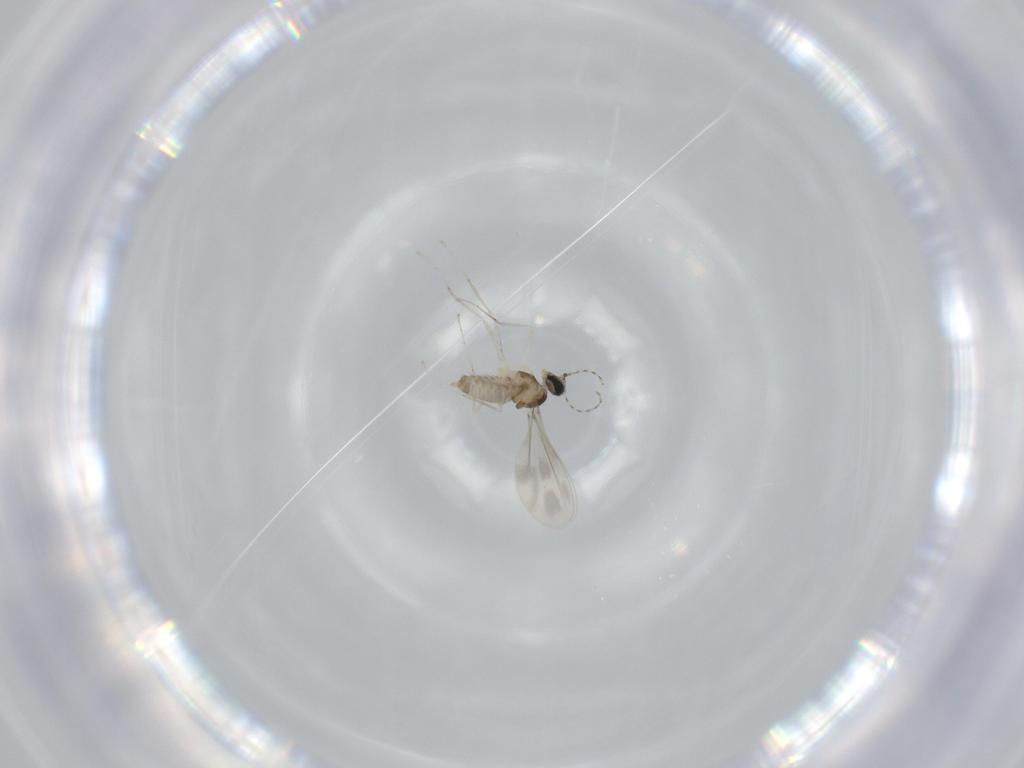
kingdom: Animalia
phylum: Arthropoda
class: Insecta
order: Diptera
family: Cecidomyiidae
